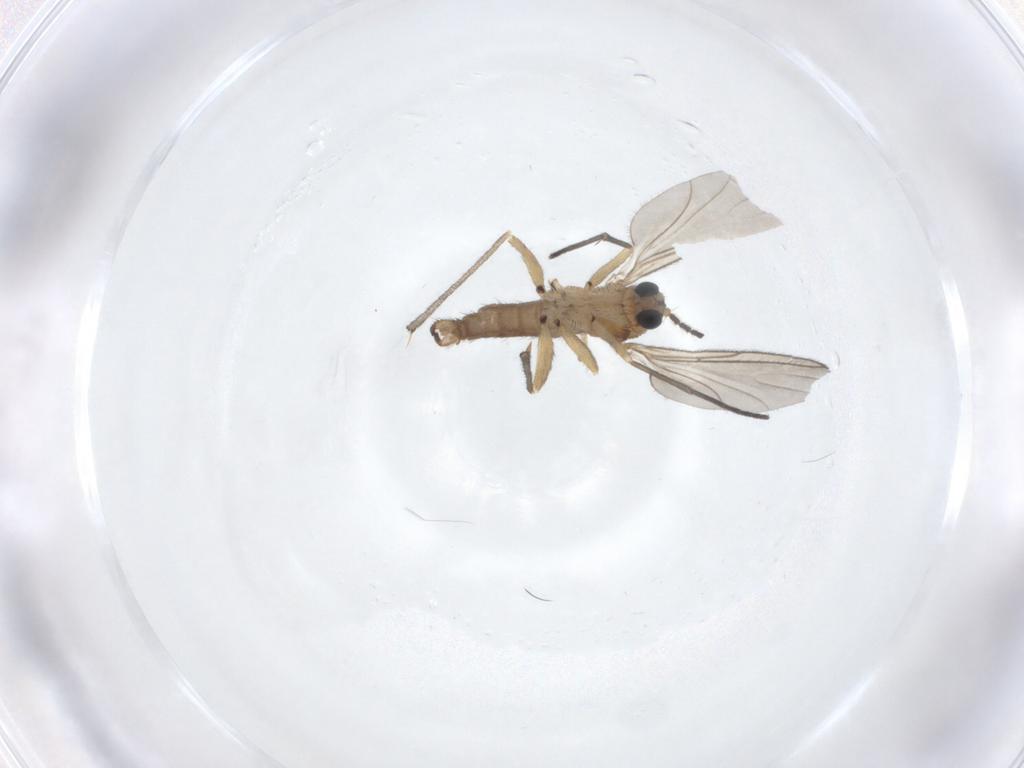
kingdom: Animalia
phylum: Arthropoda
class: Insecta
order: Diptera
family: Sciaridae
